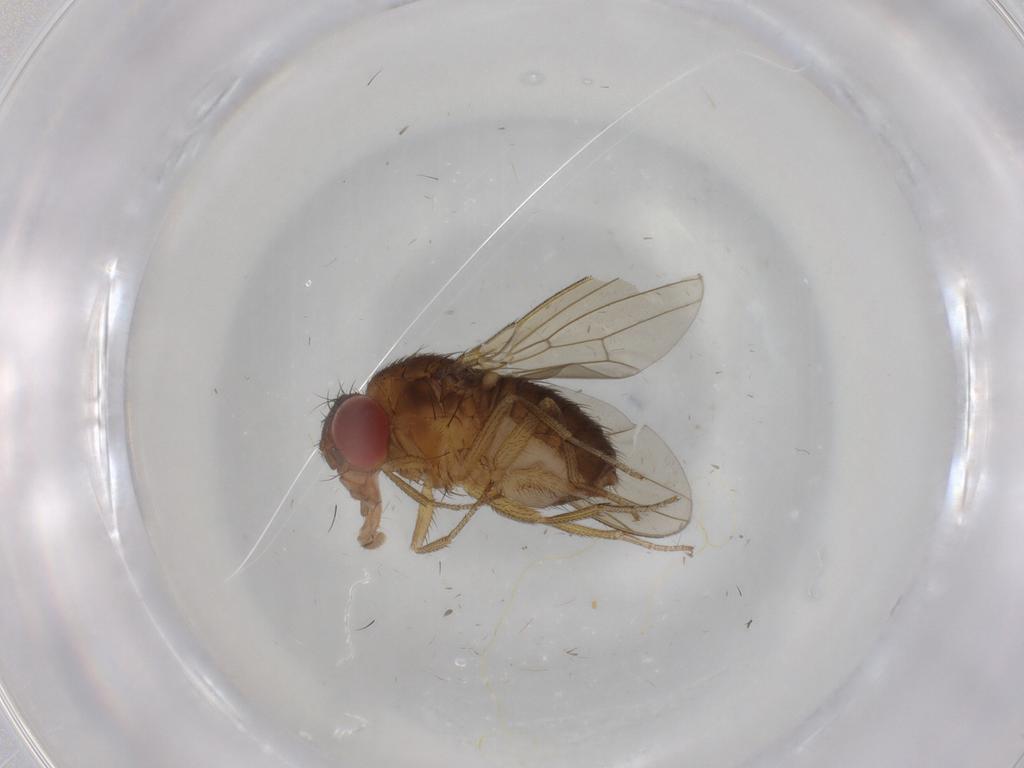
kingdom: Animalia
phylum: Arthropoda
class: Insecta
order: Diptera
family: Drosophilidae
